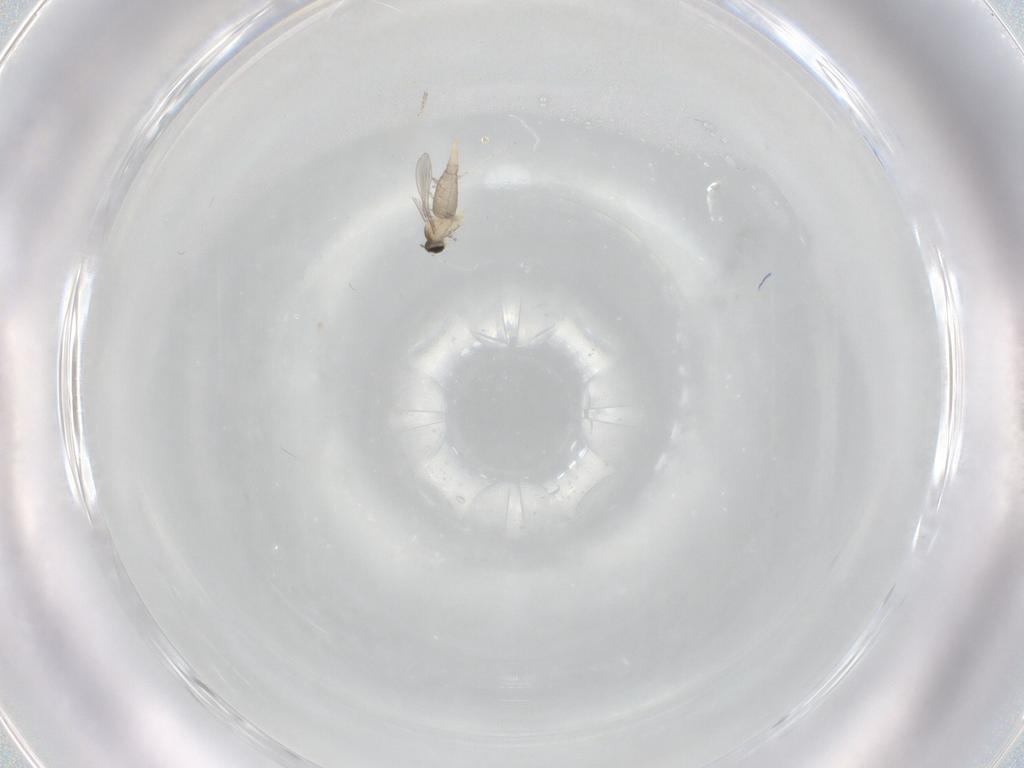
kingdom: Animalia
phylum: Arthropoda
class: Insecta
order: Diptera
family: Cecidomyiidae
